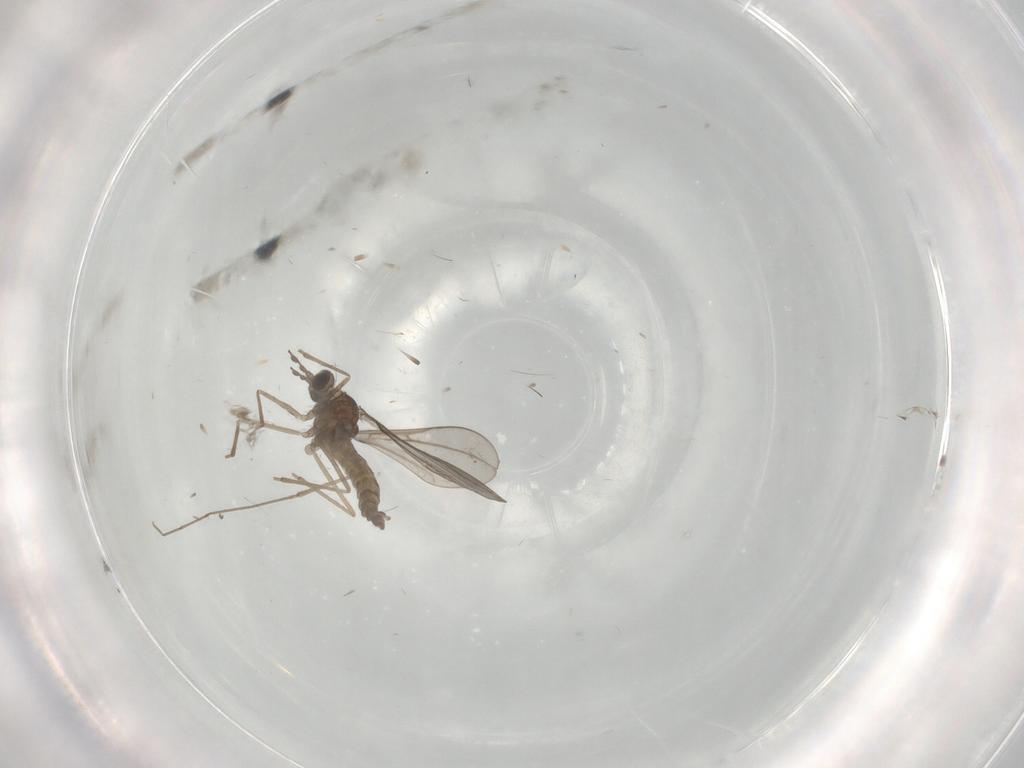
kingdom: Animalia
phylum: Arthropoda
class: Insecta
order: Diptera
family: Cecidomyiidae
